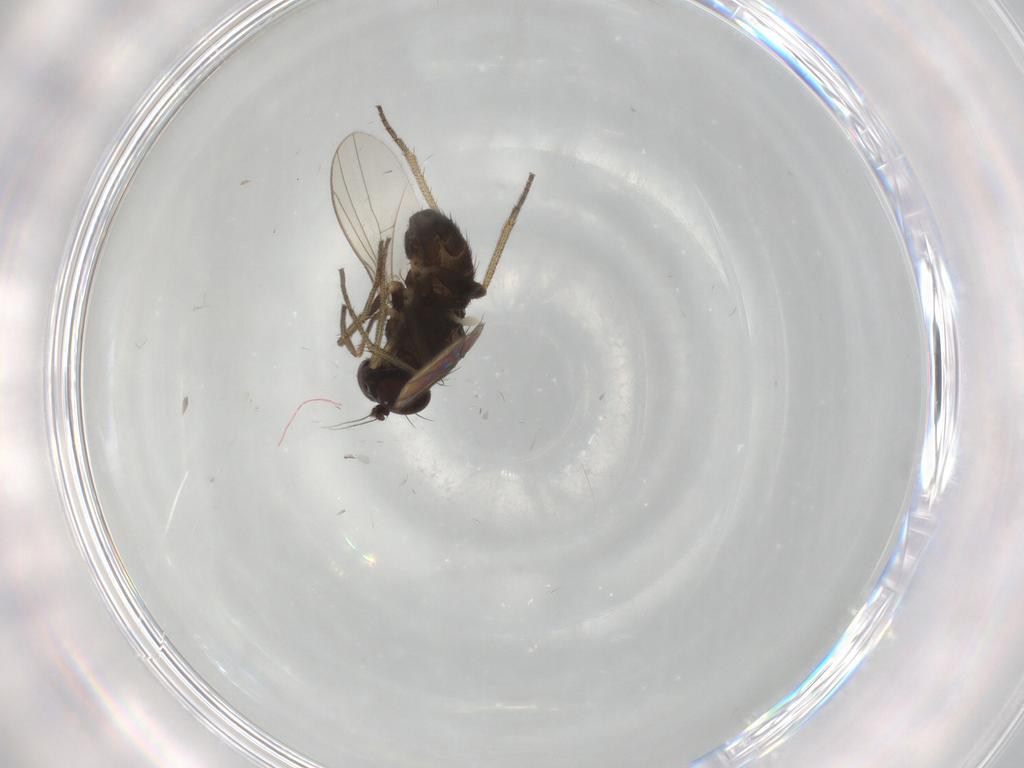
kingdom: Animalia
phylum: Arthropoda
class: Insecta
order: Diptera
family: Dolichopodidae
